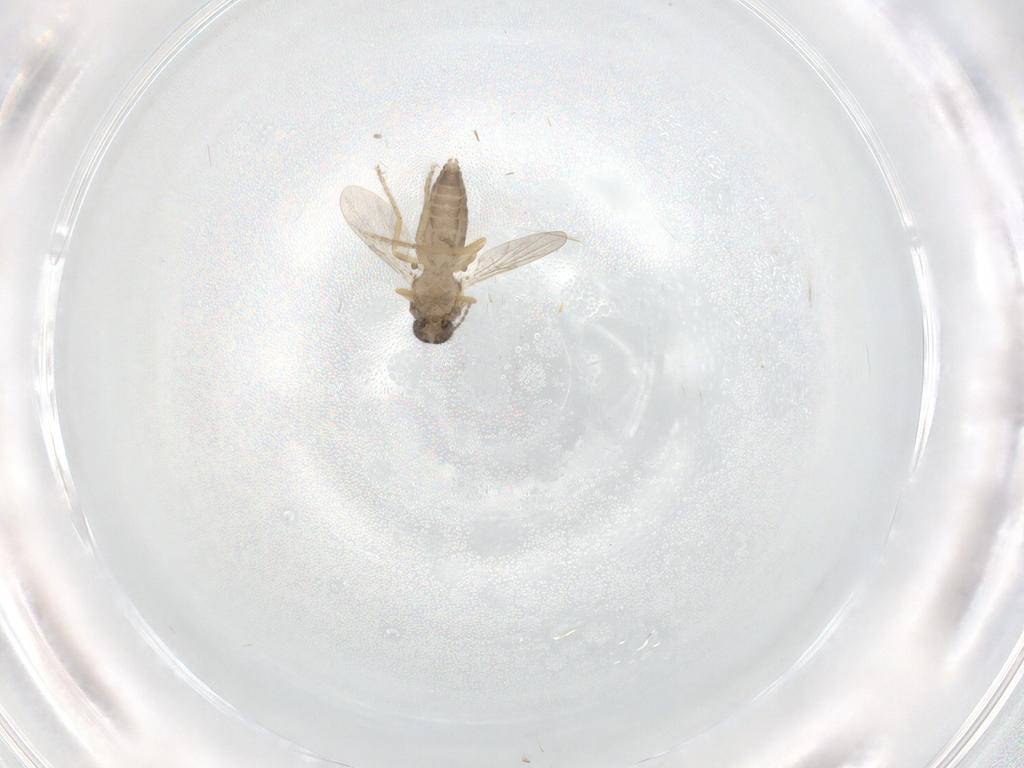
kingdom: Animalia
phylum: Arthropoda
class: Insecta
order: Diptera
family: Ceratopogonidae
